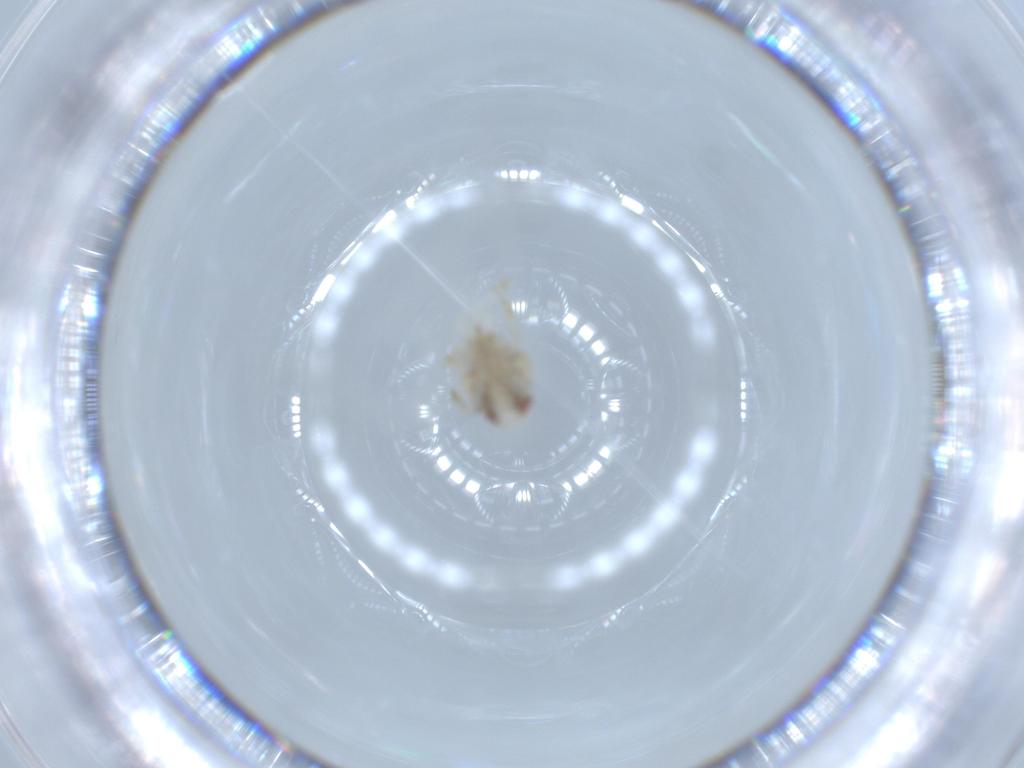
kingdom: Animalia
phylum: Arthropoda
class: Insecta
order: Hemiptera
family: Acanaloniidae
